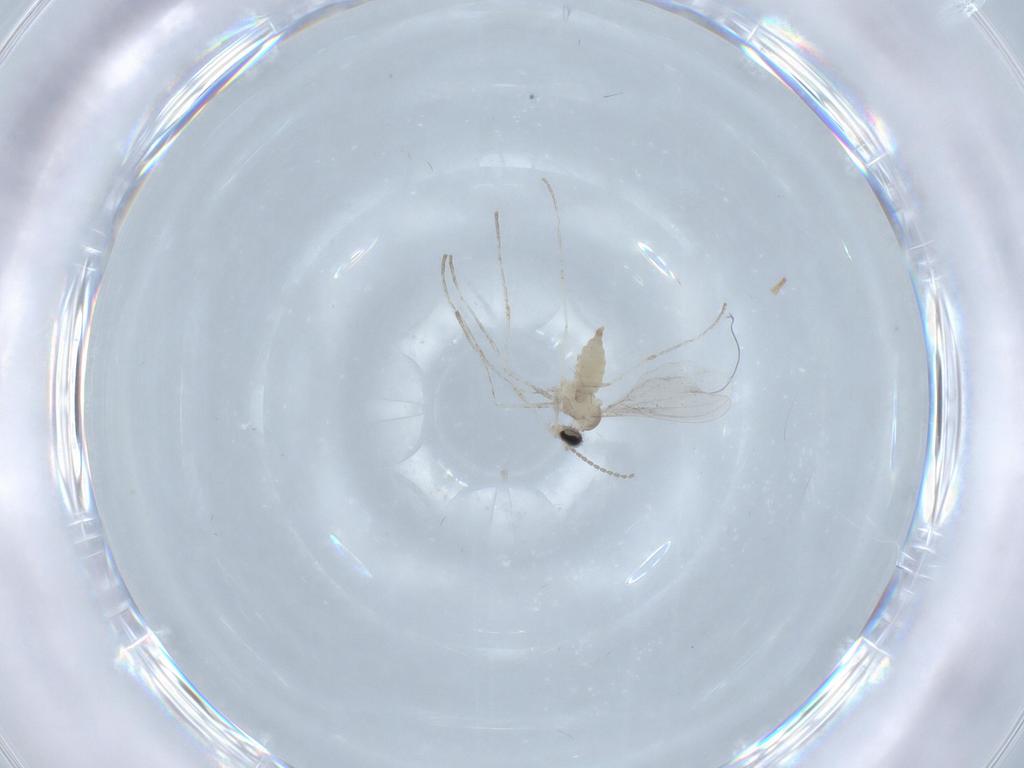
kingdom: Animalia
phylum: Arthropoda
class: Insecta
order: Diptera
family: Cecidomyiidae
